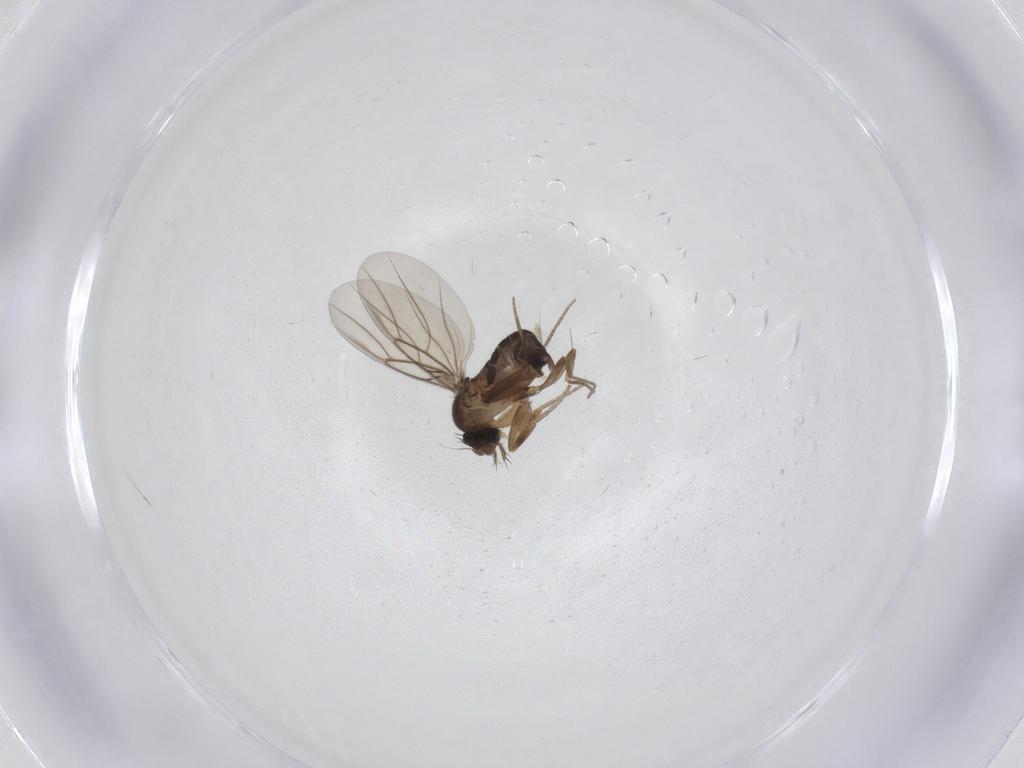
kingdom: Animalia
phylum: Arthropoda
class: Insecta
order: Diptera
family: Phoridae
